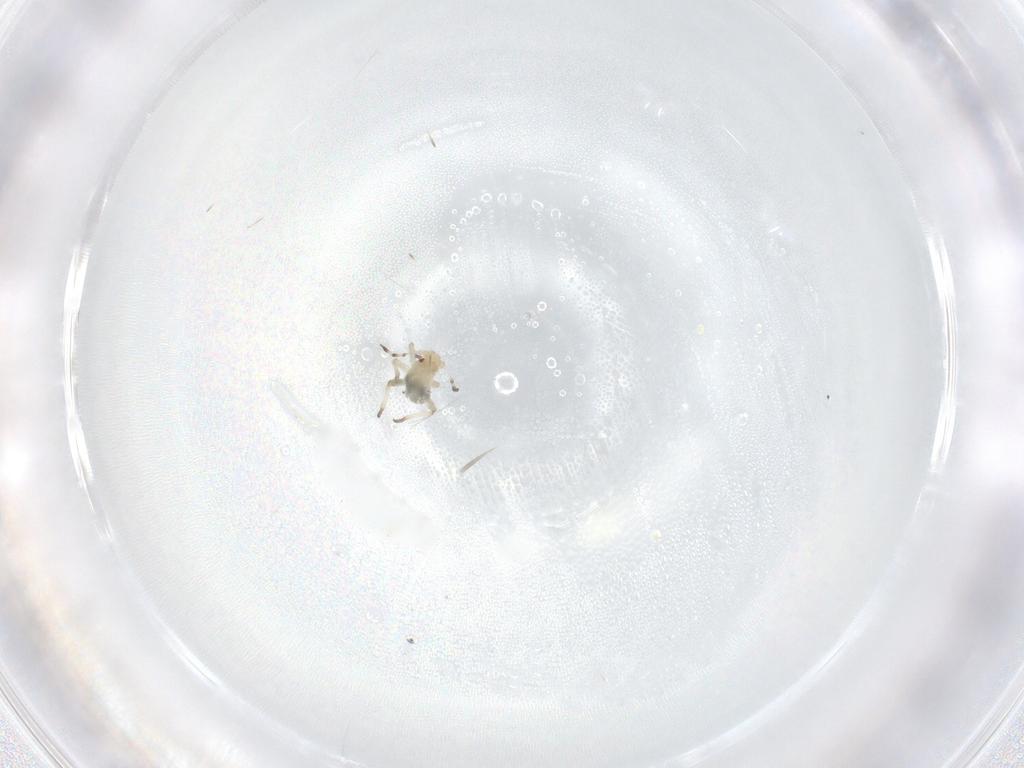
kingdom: Animalia
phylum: Arthropoda
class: Insecta
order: Hemiptera
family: Aphididae
